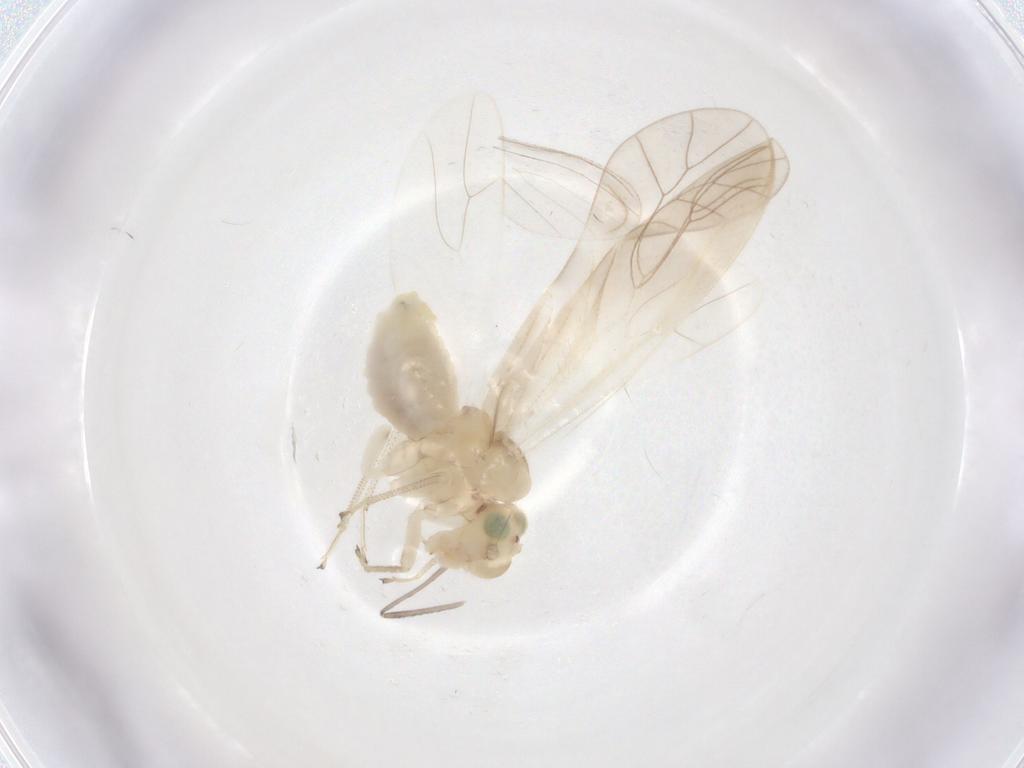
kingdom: Animalia
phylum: Arthropoda
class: Insecta
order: Psocodea
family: Caeciliusidae
